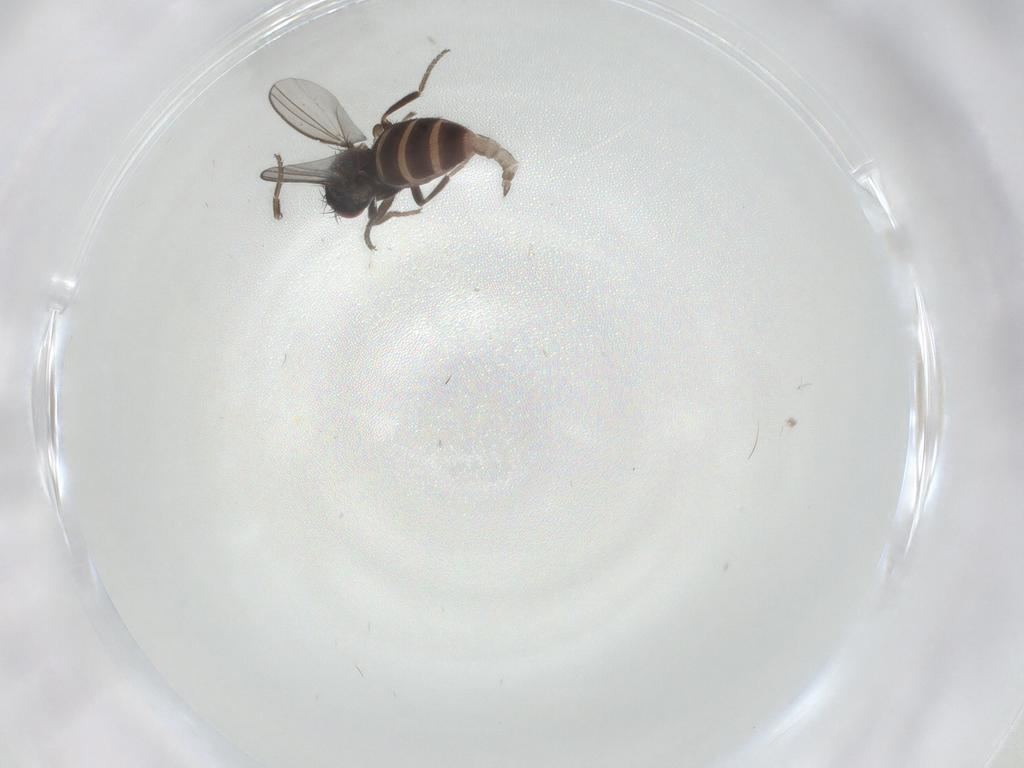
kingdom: Animalia
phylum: Arthropoda
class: Insecta
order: Diptera
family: Milichiidae
